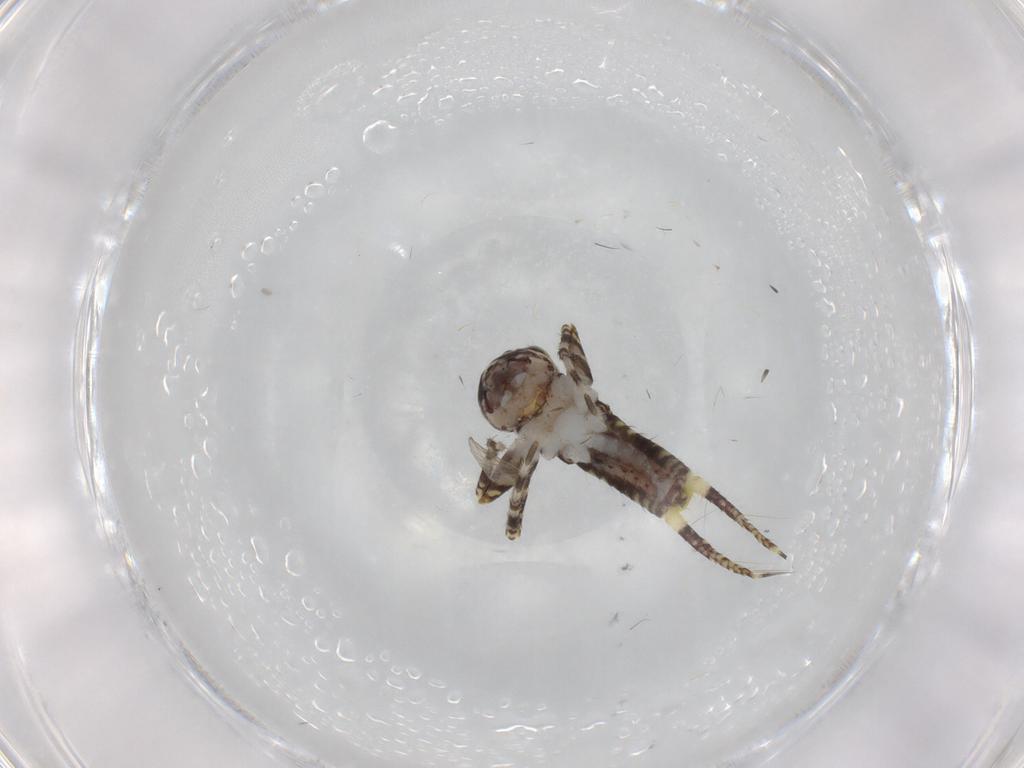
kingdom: Animalia
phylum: Arthropoda
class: Insecta
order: Orthoptera
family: Gryllidae
